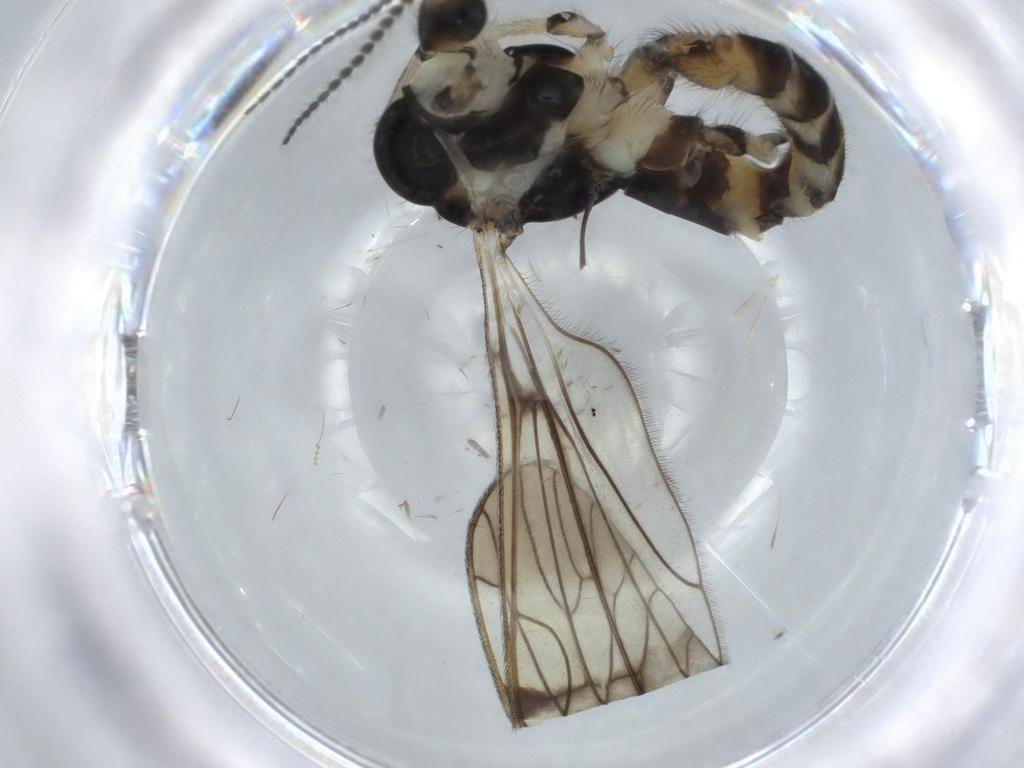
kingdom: Animalia
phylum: Arthropoda
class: Insecta
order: Diptera
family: Limoniidae
